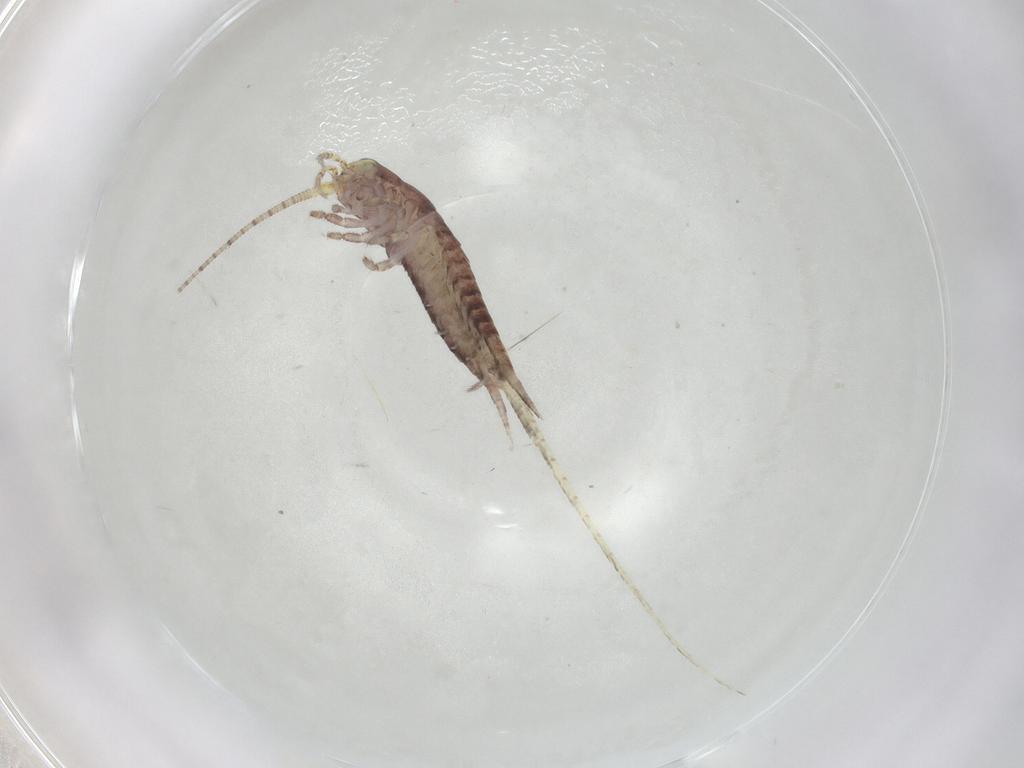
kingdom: Animalia
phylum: Arthropoda
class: Insecta
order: Archaeognatha
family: Machilidae
